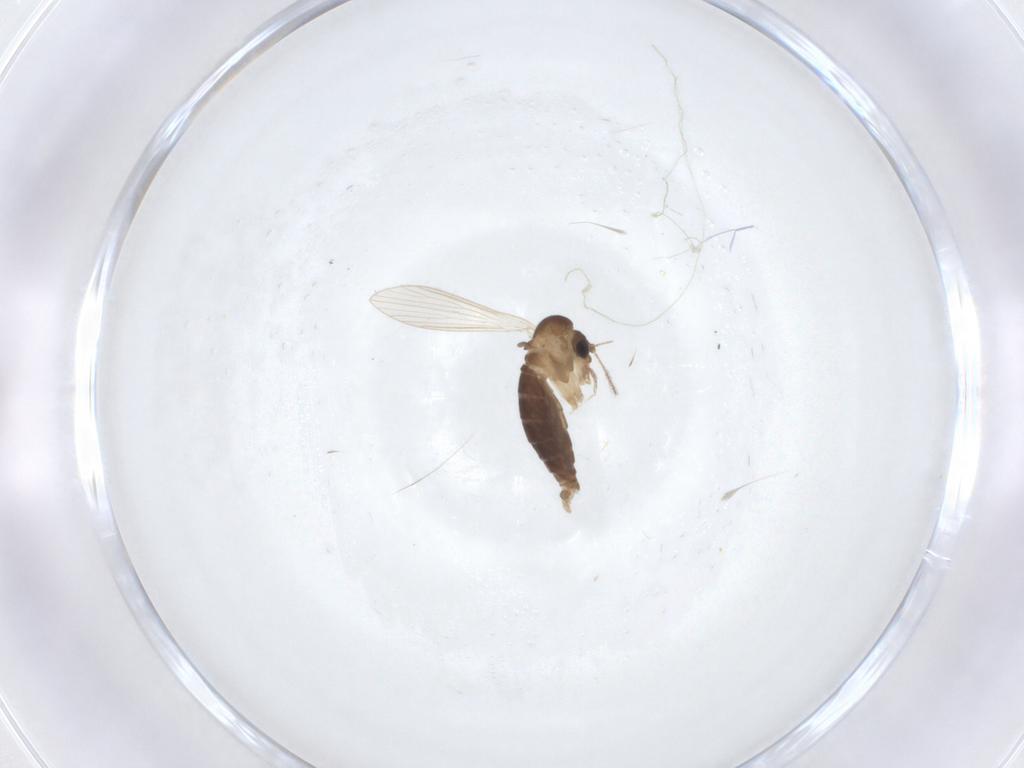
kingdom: Animalia
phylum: Arthropoda
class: Insecta
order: Diptera
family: Psychodidae
